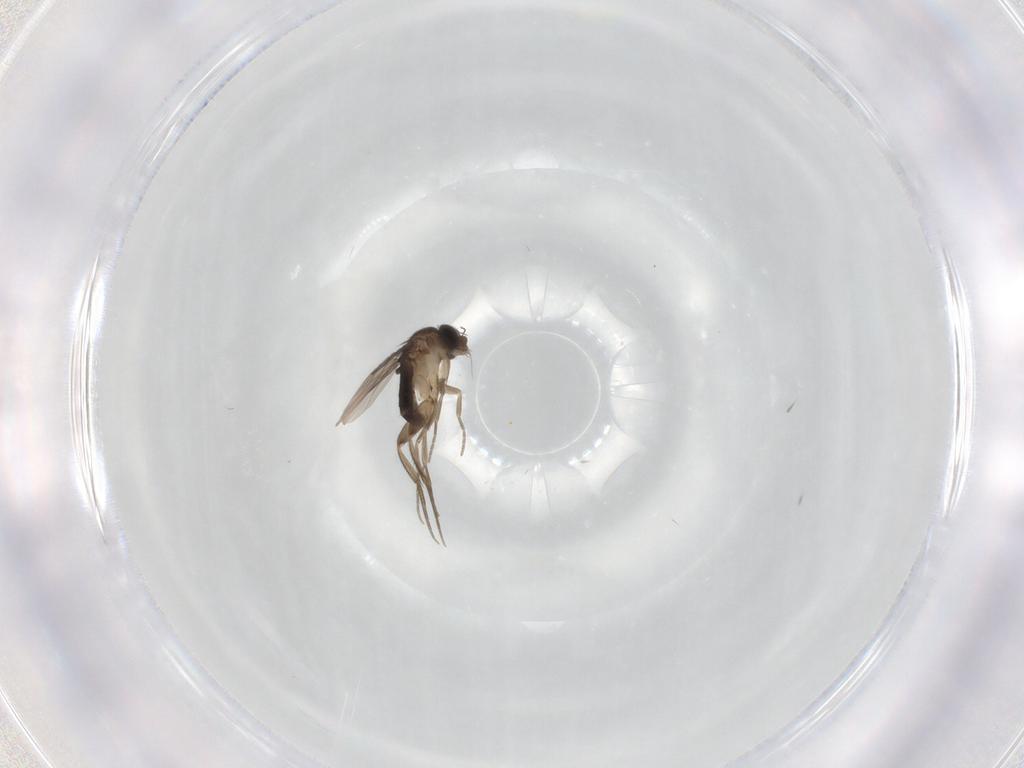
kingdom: Animalia
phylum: Arthropoda
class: Insecta
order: Diptera
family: Phoridae
